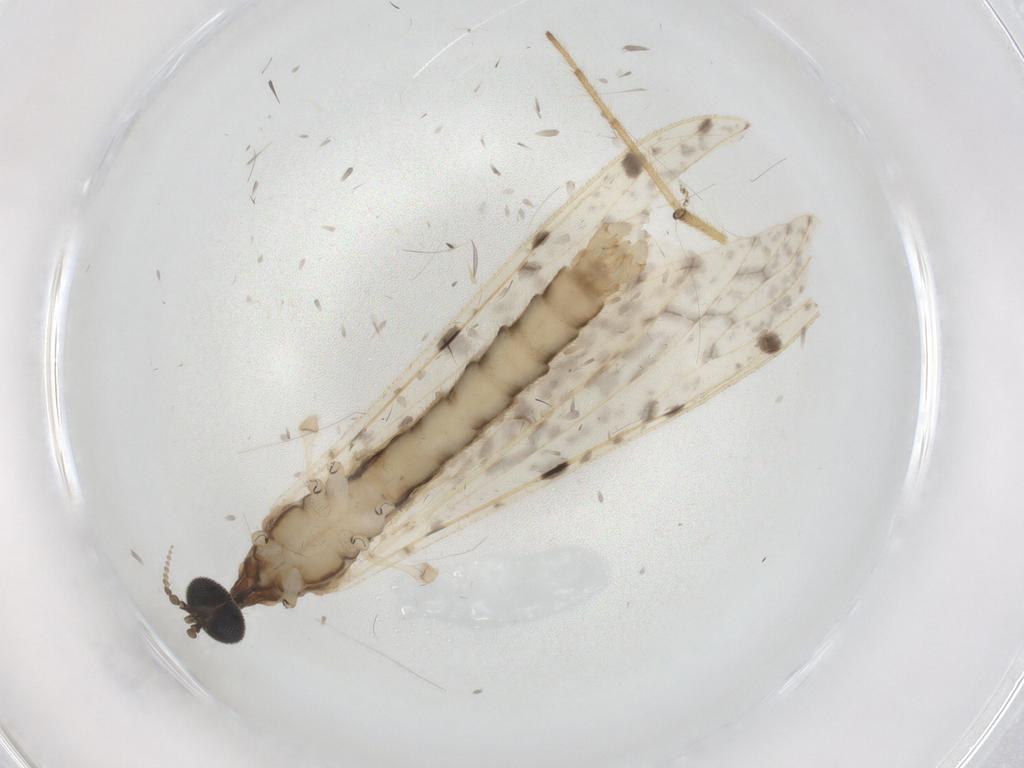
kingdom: Animalia
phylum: Arthropoda
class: Insecta
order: Diptera
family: Limoniidae
